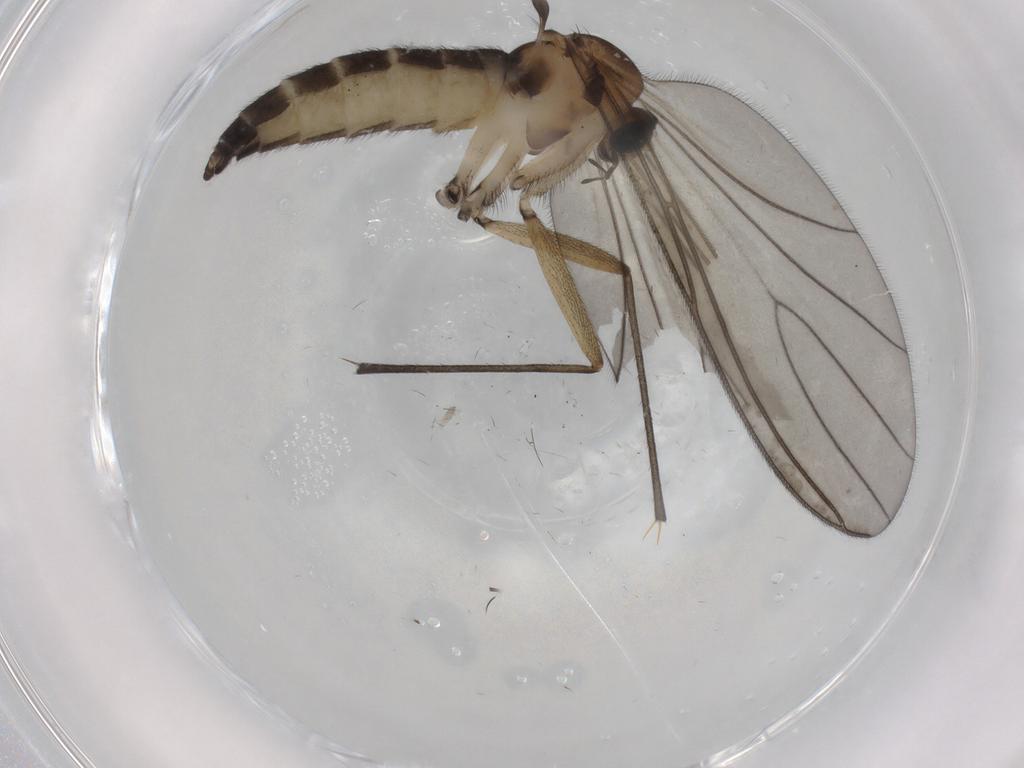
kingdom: Animalia
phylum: Arthropoda
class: Insecta
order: Diptera
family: Sciaridae
